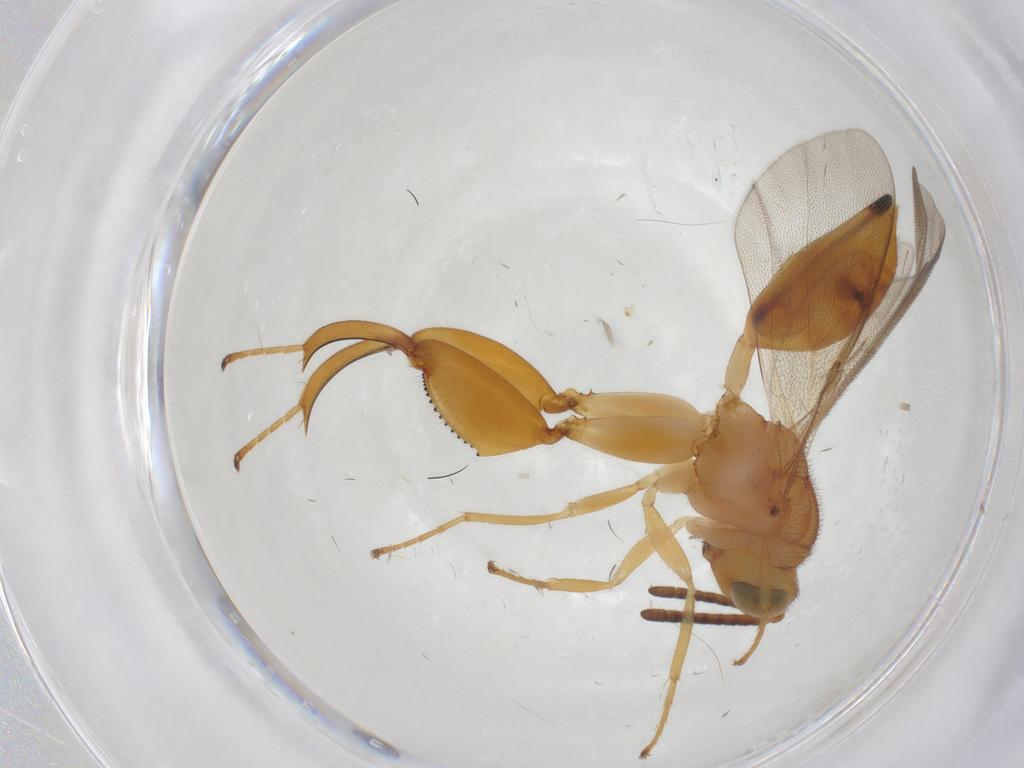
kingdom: Animalia
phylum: Arthropoda
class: Insecta
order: Hymenoptera
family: Chalcididae
